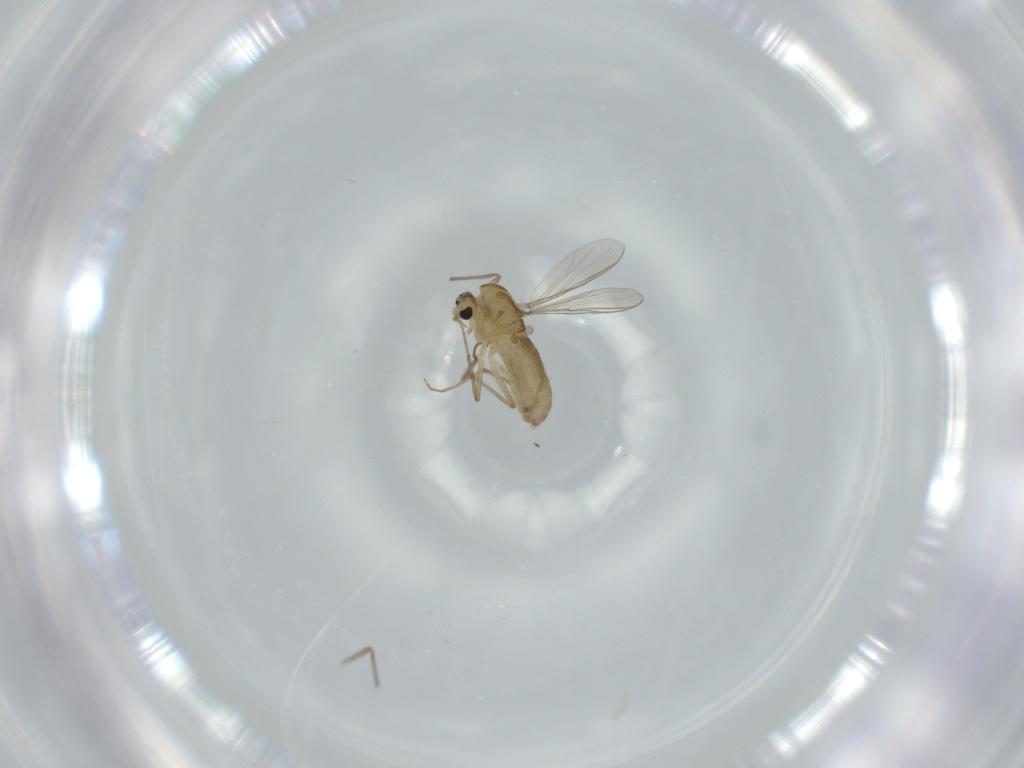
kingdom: Animalia
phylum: Arthropoda
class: Insecta
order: Diptera
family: Chironomidae
